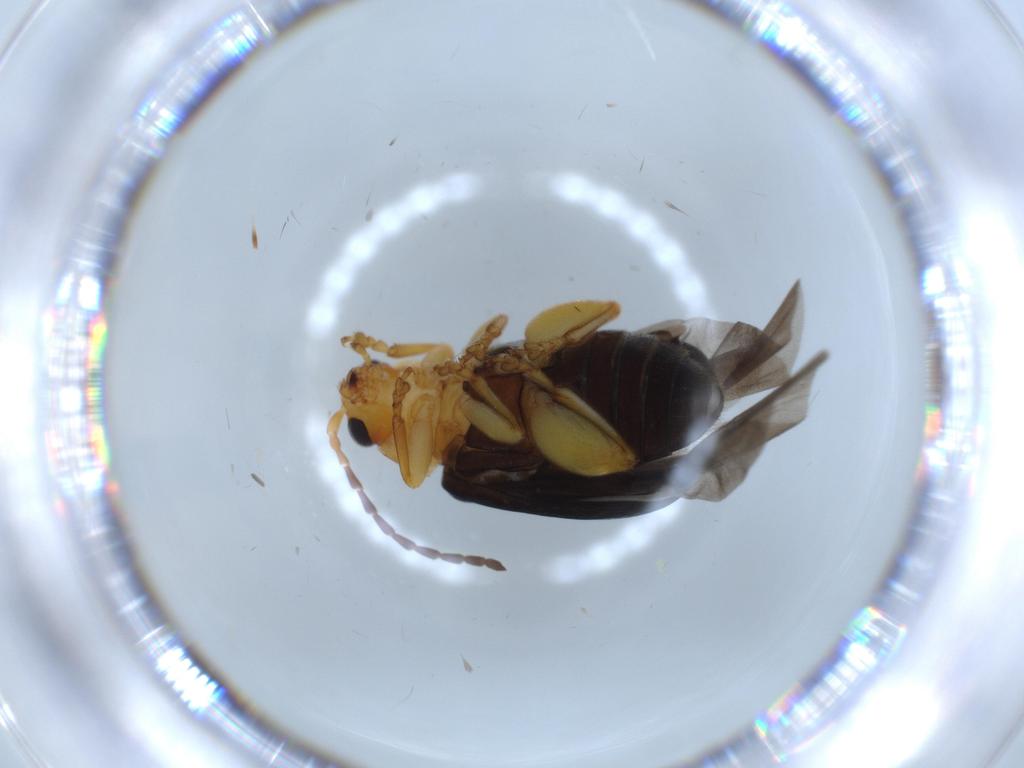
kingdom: Animalia
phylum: Arthropoda
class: Insecta
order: Coleoptera
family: Chrysomelidae
